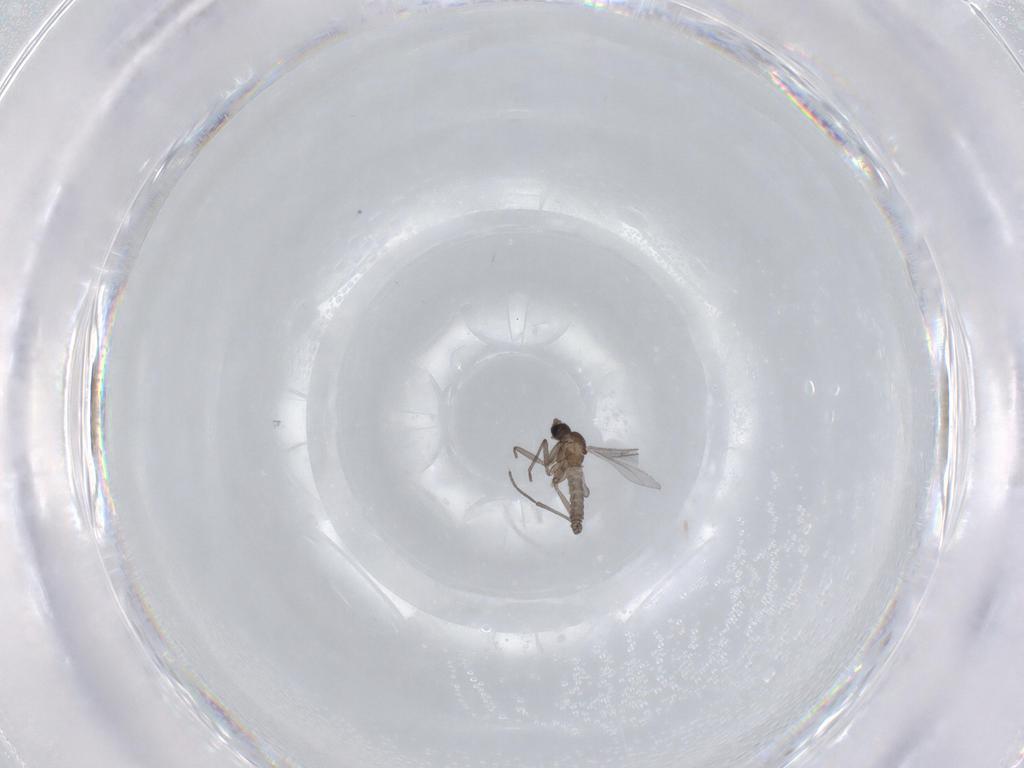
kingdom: Animalia
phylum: Arthropoda
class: Insecta
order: Diptera
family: Sciaridae
